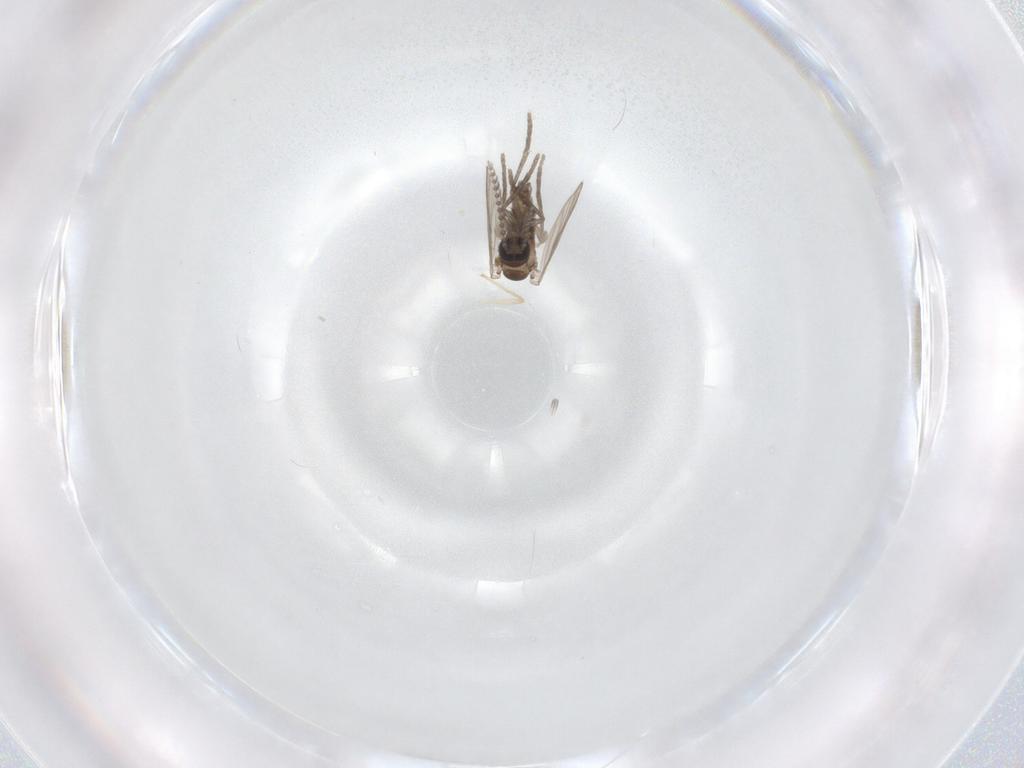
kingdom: Animalia
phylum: Arthropoda
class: Insecta
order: Diptera
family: Psychodidae
